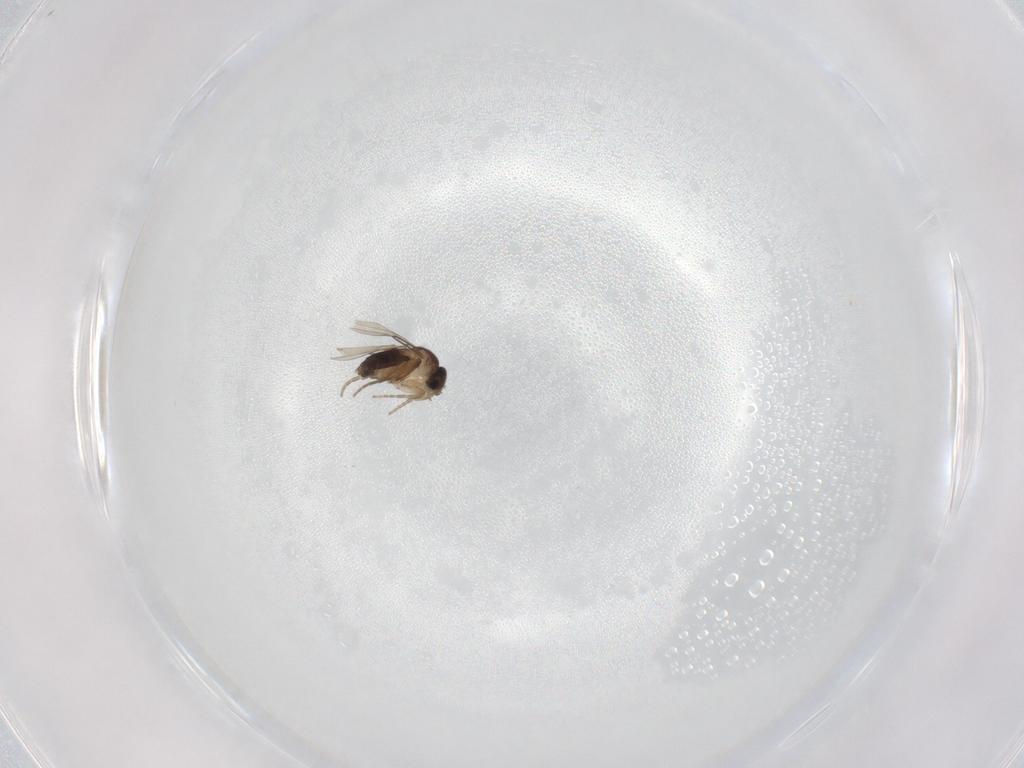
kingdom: Animalia
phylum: Arthropoda
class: Insecta
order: Diptera
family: Phoridae
